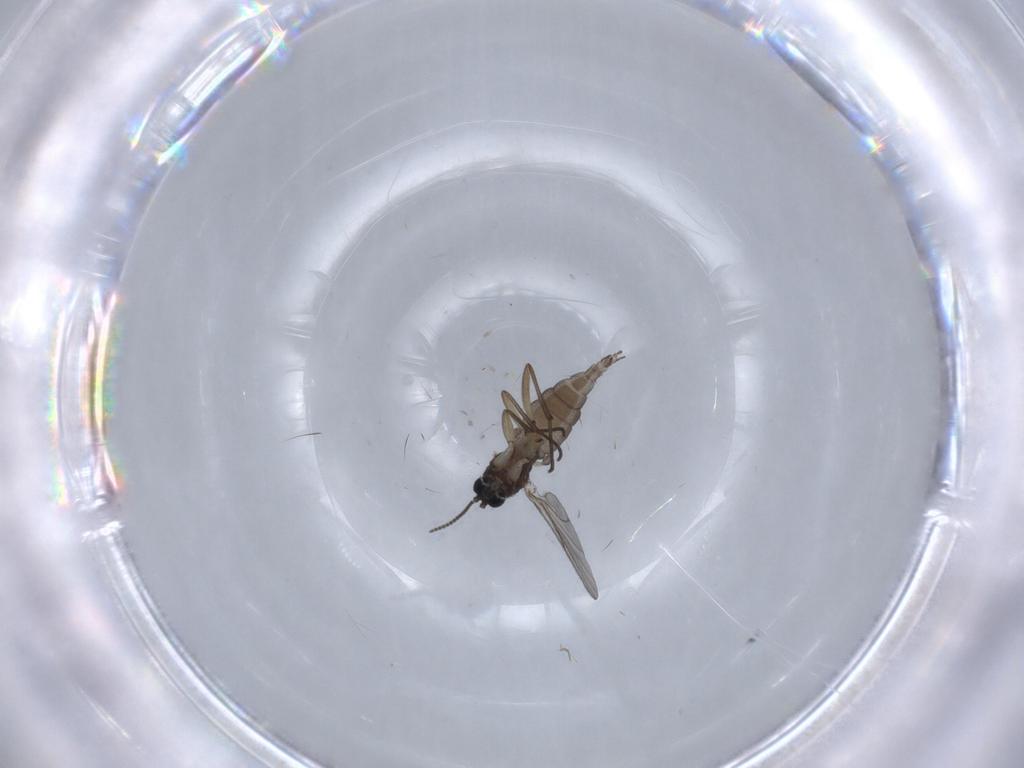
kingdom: Animalia
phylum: Arthropoda
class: Insecta
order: Diptera
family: Sciaridae
